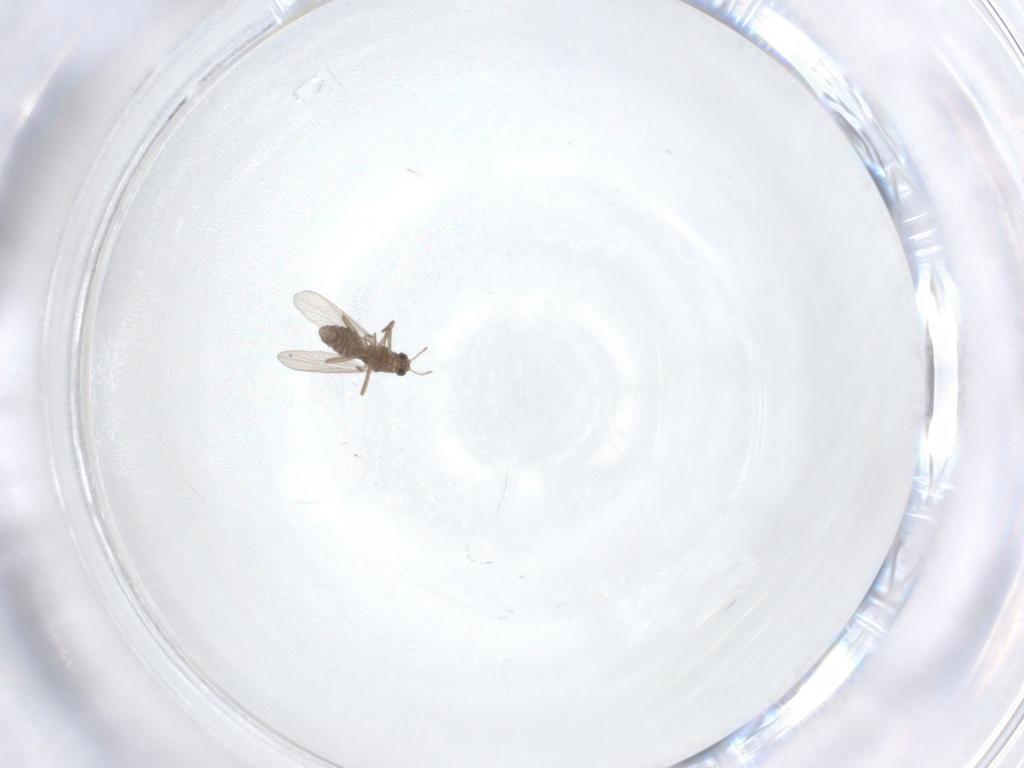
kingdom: Animalia
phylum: Arthropoda
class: Insecta
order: Diptera
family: Chironomidae
